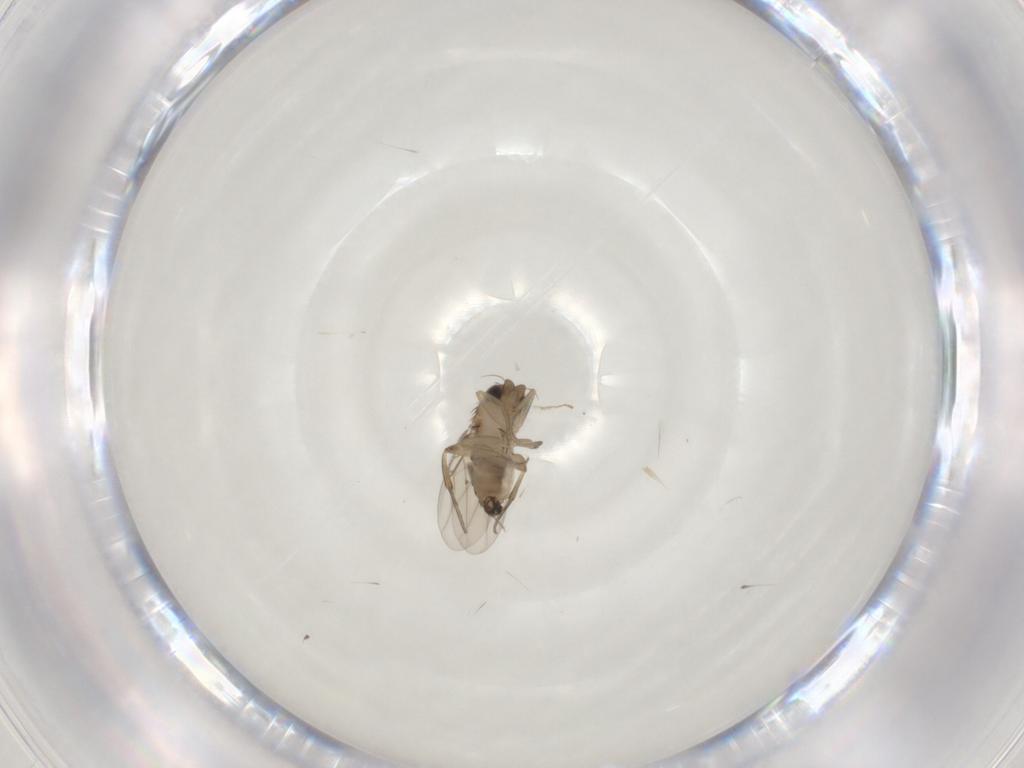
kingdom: Animalia
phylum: Arthropoda
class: Insecta
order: Diptera
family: Phoridae
